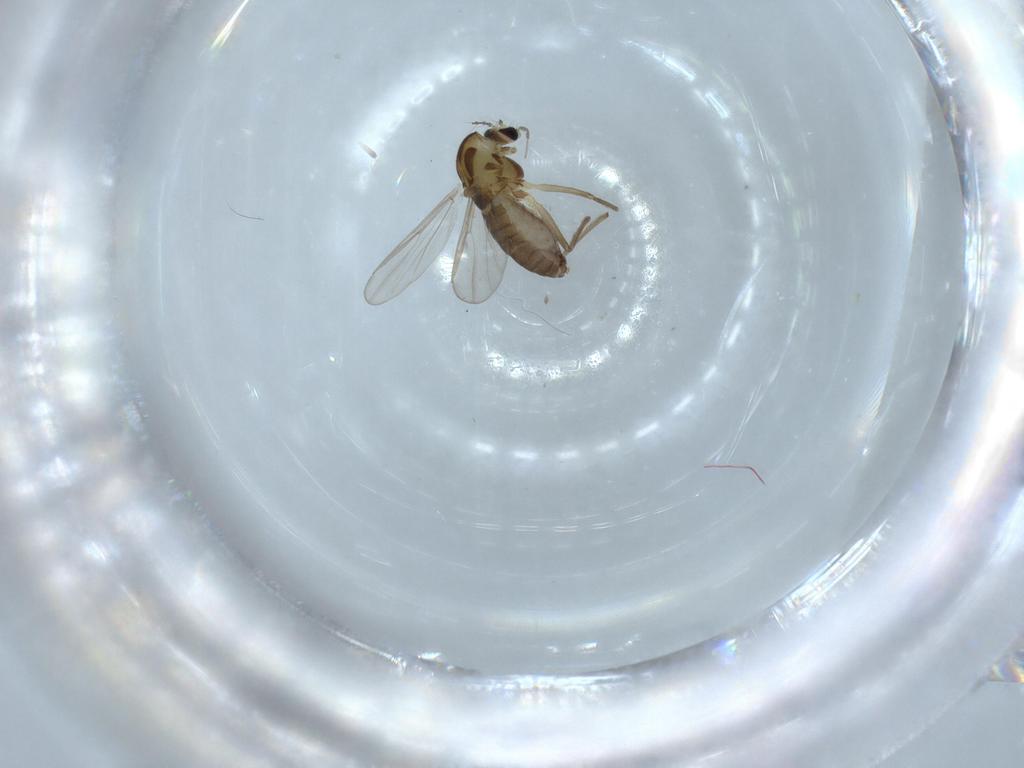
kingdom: Animalia
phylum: Arthropoda
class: Insecta
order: Diptera
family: Chironomidae
